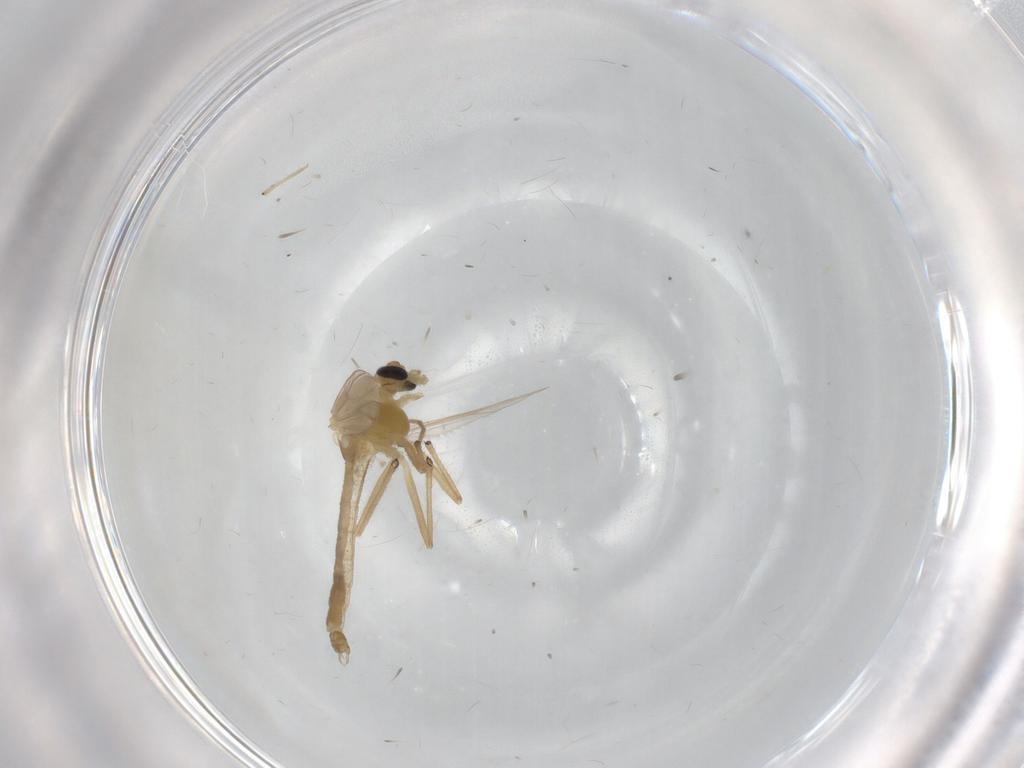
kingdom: Animalia
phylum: Arthropoda
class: Insecta
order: Diptera
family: Chironomidae
